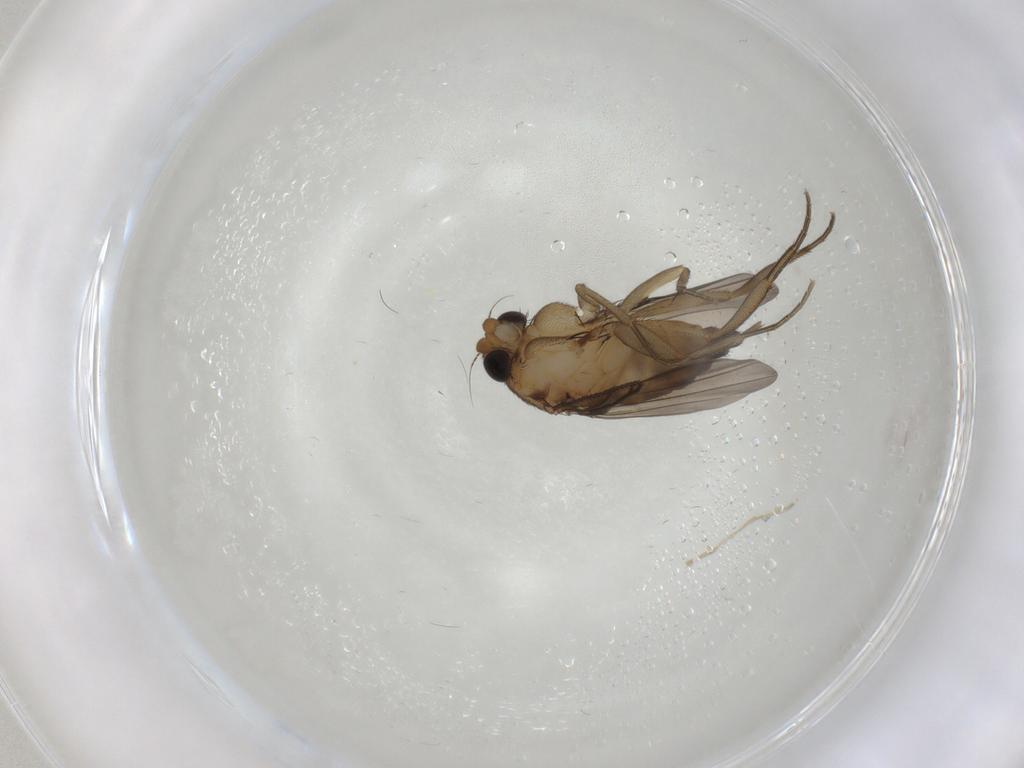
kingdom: Animalia
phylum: Arthropoda
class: Insecta
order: Diptera
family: Phoridae
